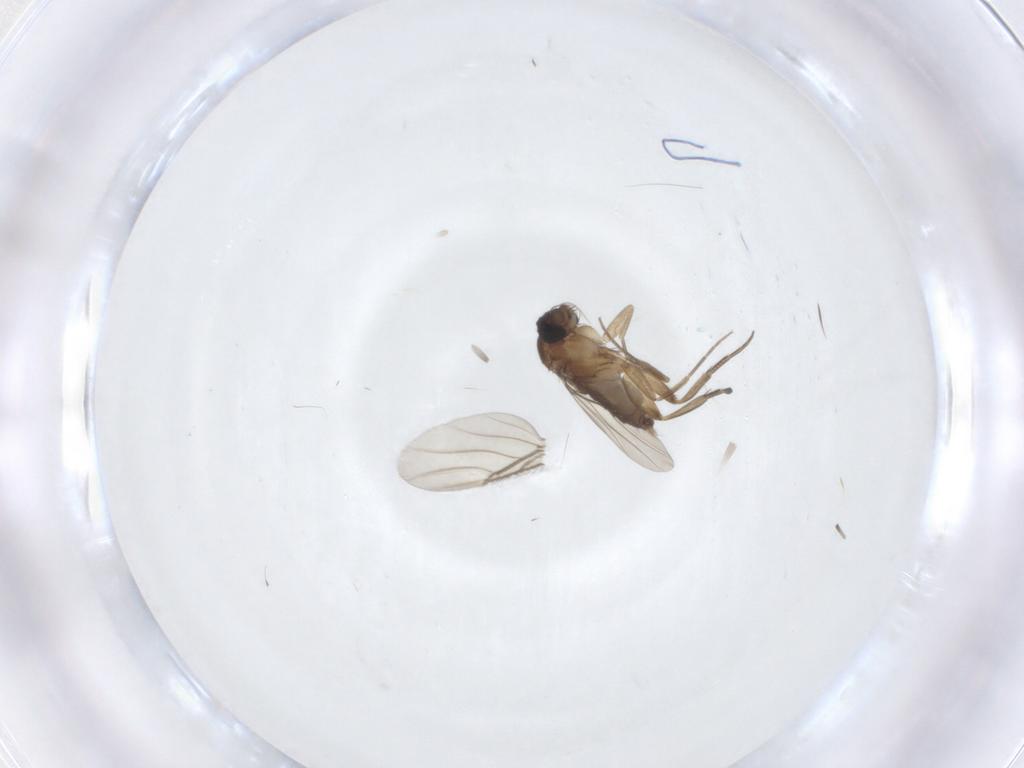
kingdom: Animalia
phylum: Arthropoda
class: Insecta
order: Diptera
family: Phoridae
